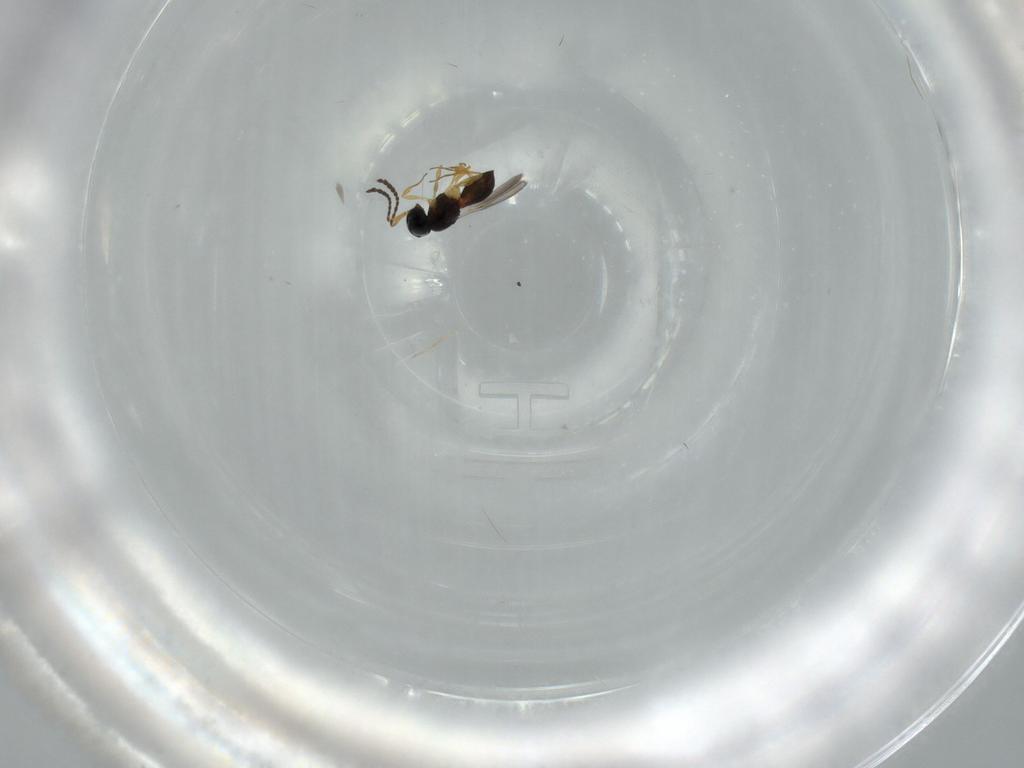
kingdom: Animalia
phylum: Arthropoda
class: Insecta
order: Hymenoptera
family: Scelionidae
